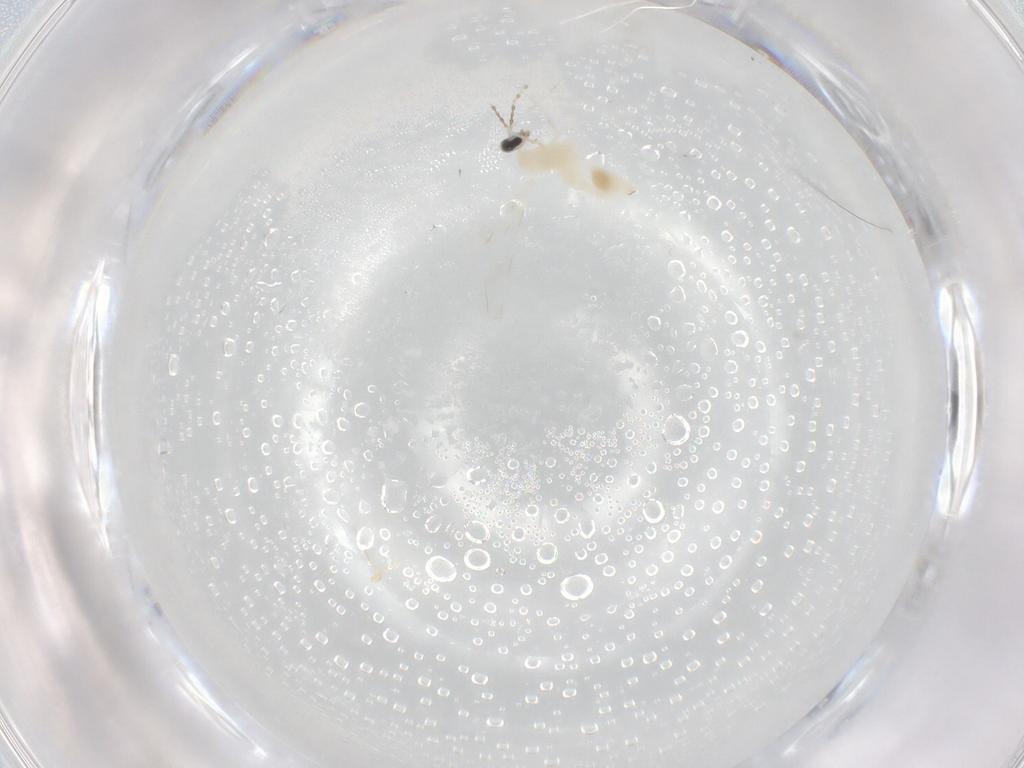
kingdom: Animalia
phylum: Arthropoda
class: Insecta
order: Diptera
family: Cecidomyiidae
